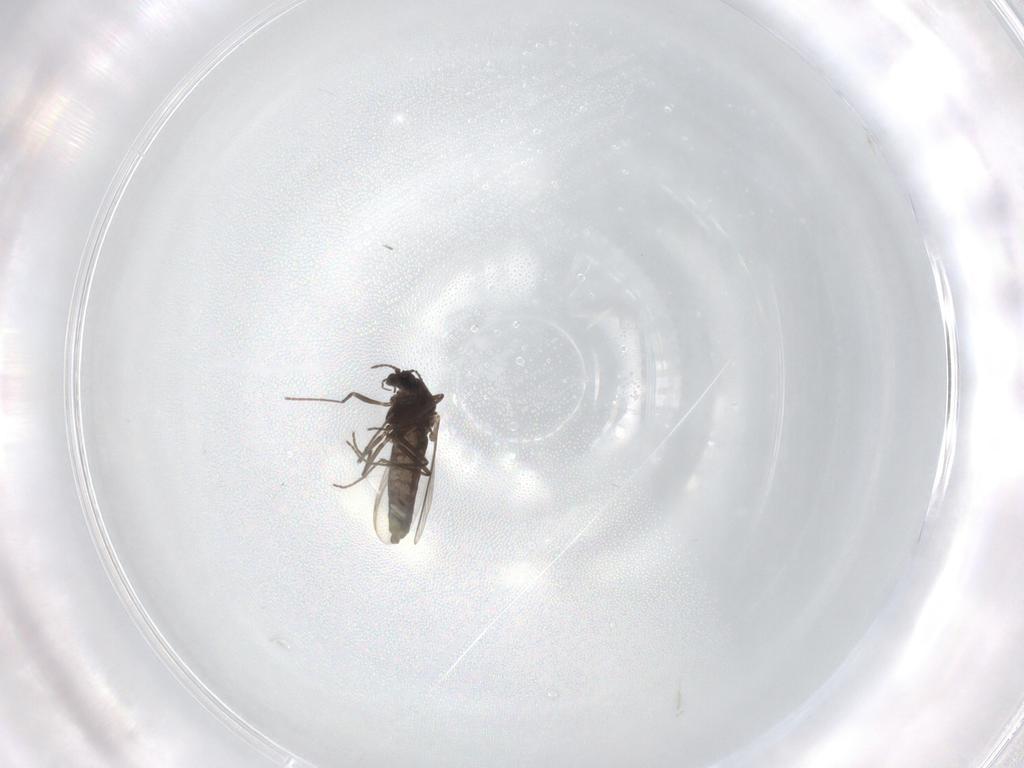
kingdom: Animalia
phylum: Arthropoda
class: Insecta
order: Diptera
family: Chironomidae
